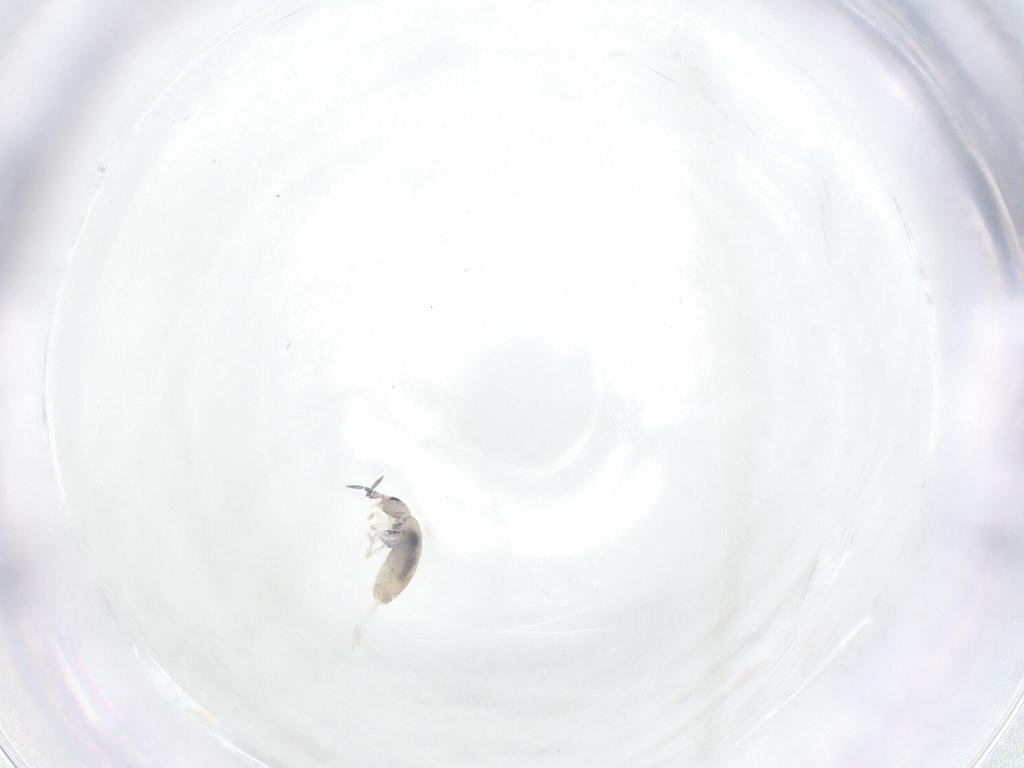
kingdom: Animalia
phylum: Arthropoda
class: Collembola
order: Entomobryomorpha
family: Entomobryidae
